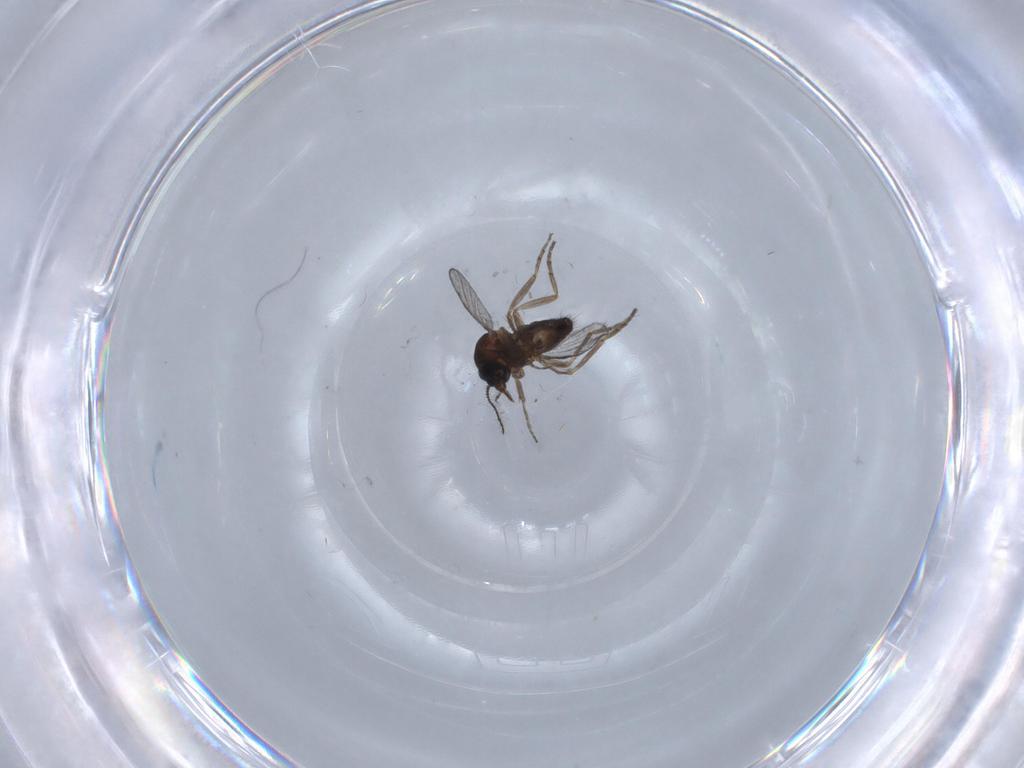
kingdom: Animalia
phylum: Arthropoda
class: Insecta
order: Diptera
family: Ceratopogonidae
